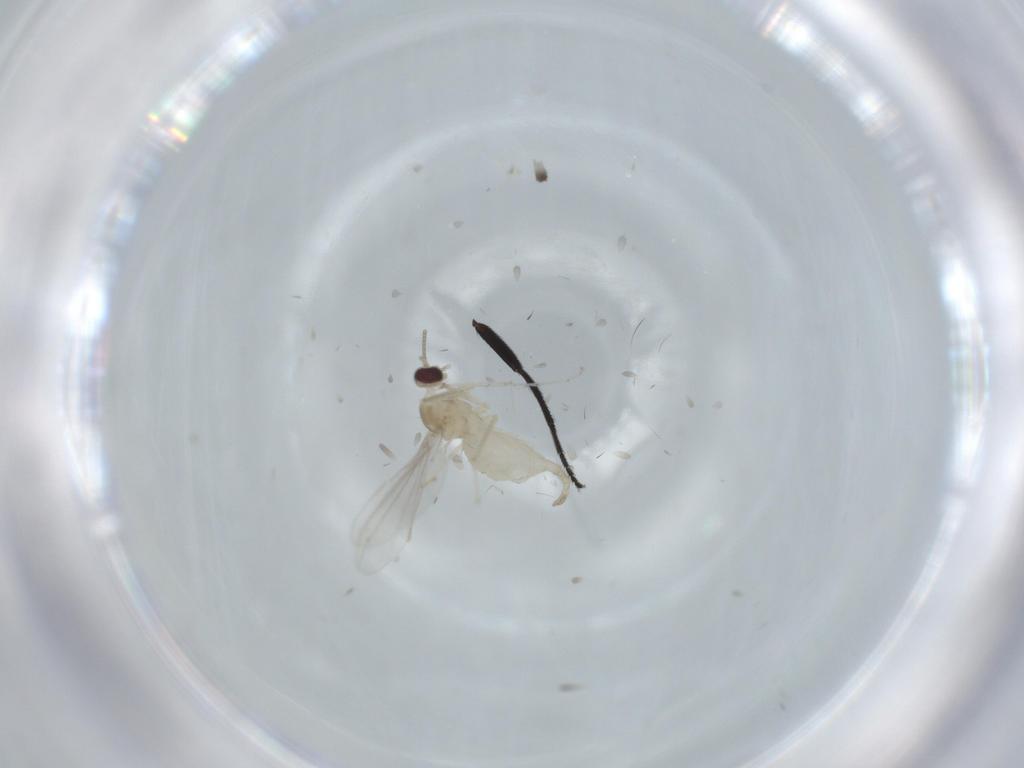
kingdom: Animalia
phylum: Arthropoda
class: Insecta
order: Diptera
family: Cecidomyiidae
